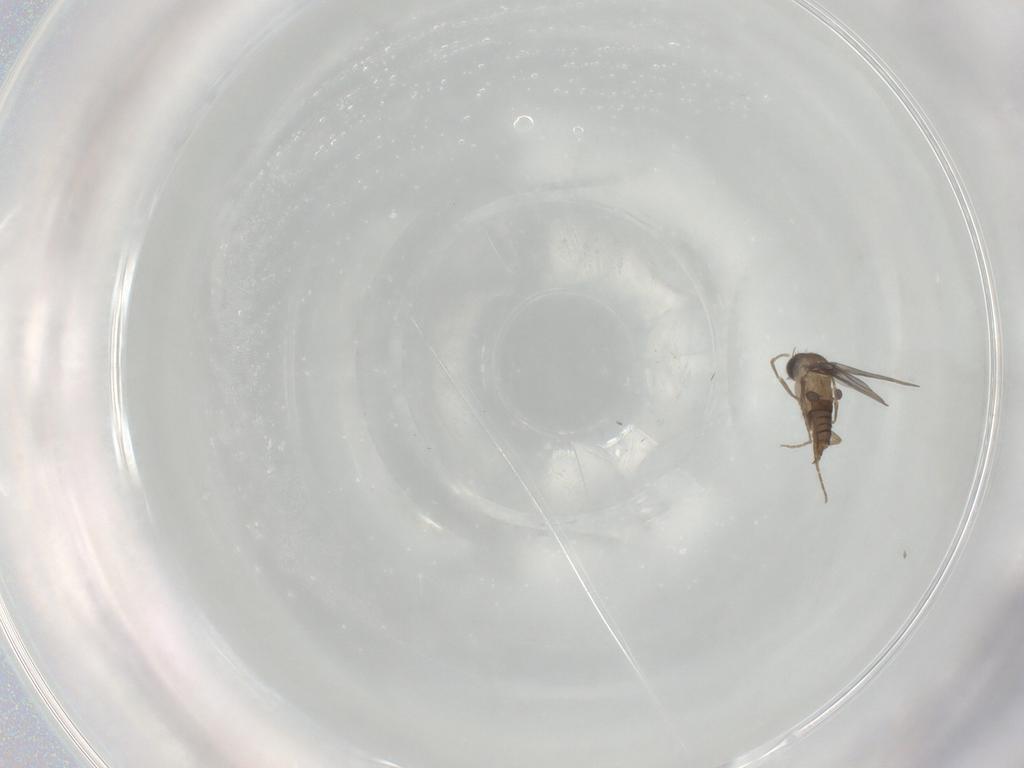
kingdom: Animalia
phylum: Arthropoda
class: Insecta
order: Diptera
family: Limoniidae
